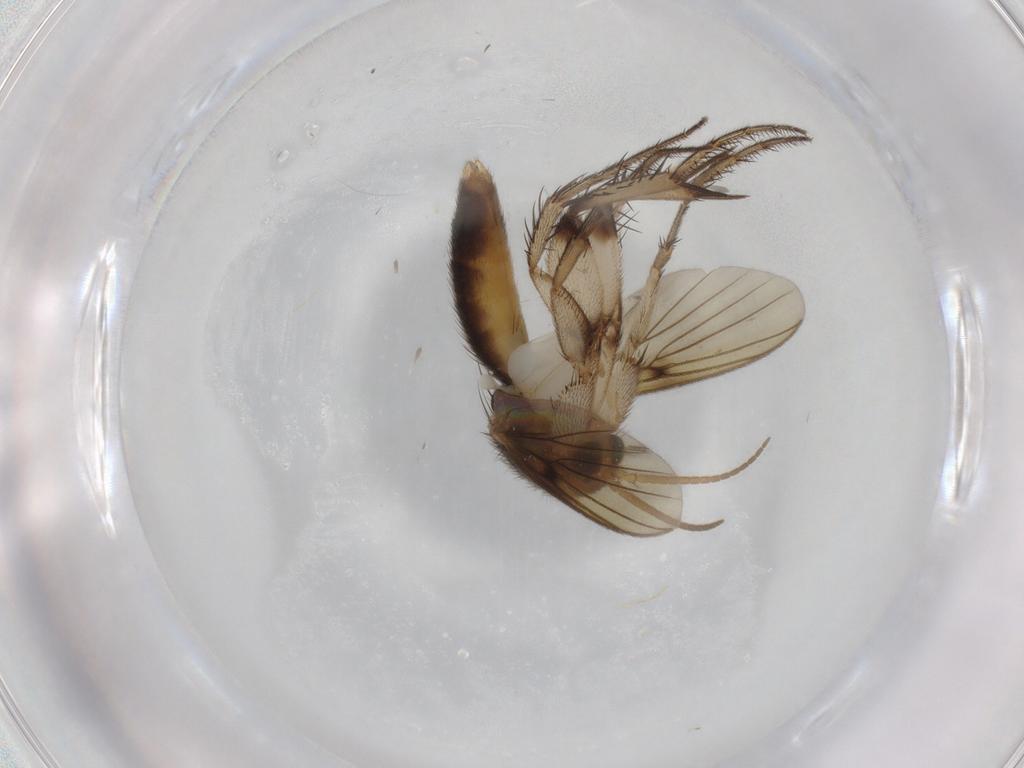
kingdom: Animalia
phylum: Arthropoda
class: Insecta
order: Diptera
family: Mycetophilidae
